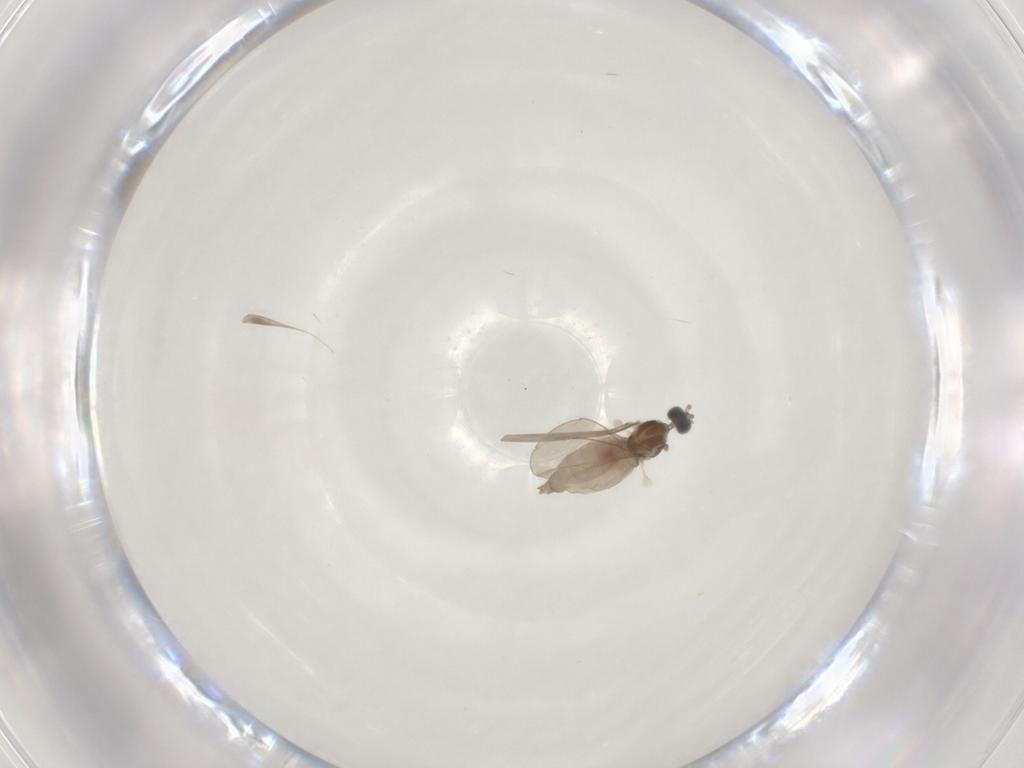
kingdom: Animalia
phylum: Arthropoda
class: Insecta
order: Diptera
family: Cecidomyiidae
